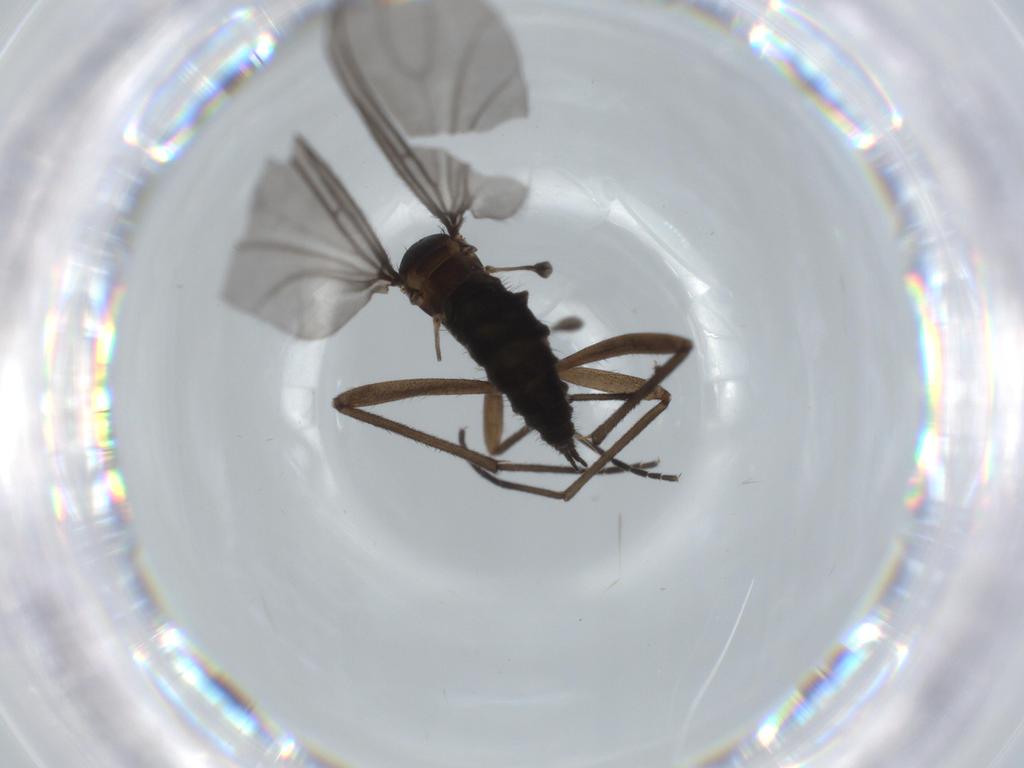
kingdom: Animalia
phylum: Arthropoda
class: Insecta
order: Diptera
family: Sciaridae
